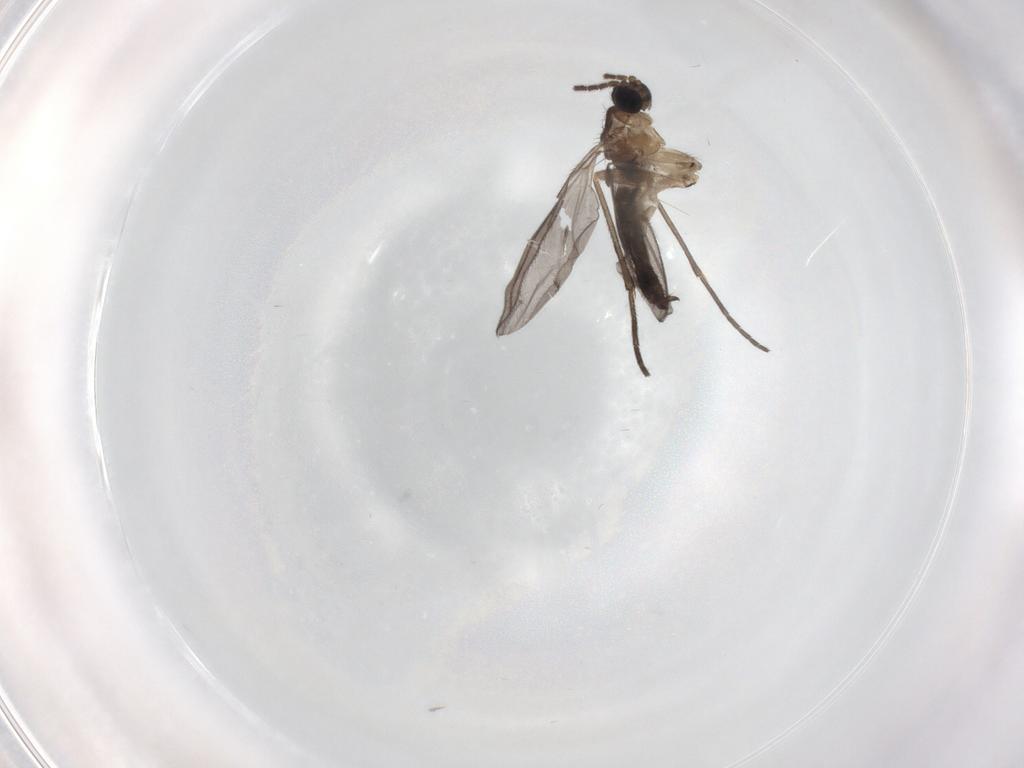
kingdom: Animalia
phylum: Arthropoda
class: Insecta
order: Diptera
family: Sciaridae
